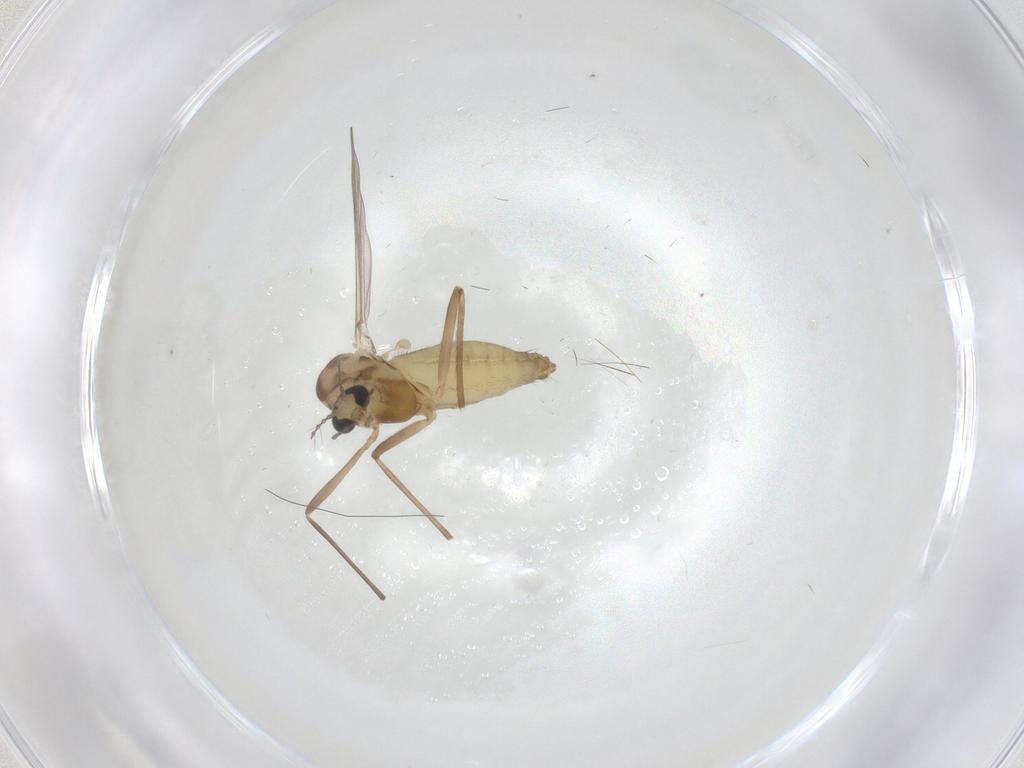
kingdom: Animalia
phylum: Arthropoda
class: Insecta
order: Diptera
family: Chironomidae
